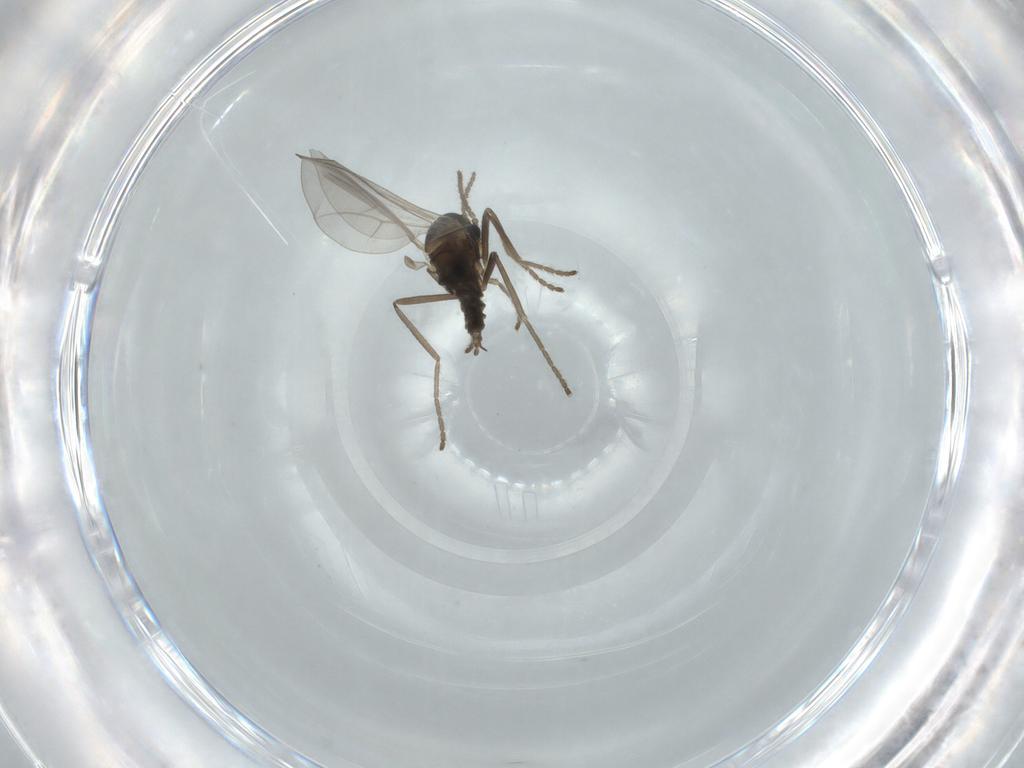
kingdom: Animalia
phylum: Arthropoda
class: Insecta
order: Diptera
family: Cecidomyiidae
